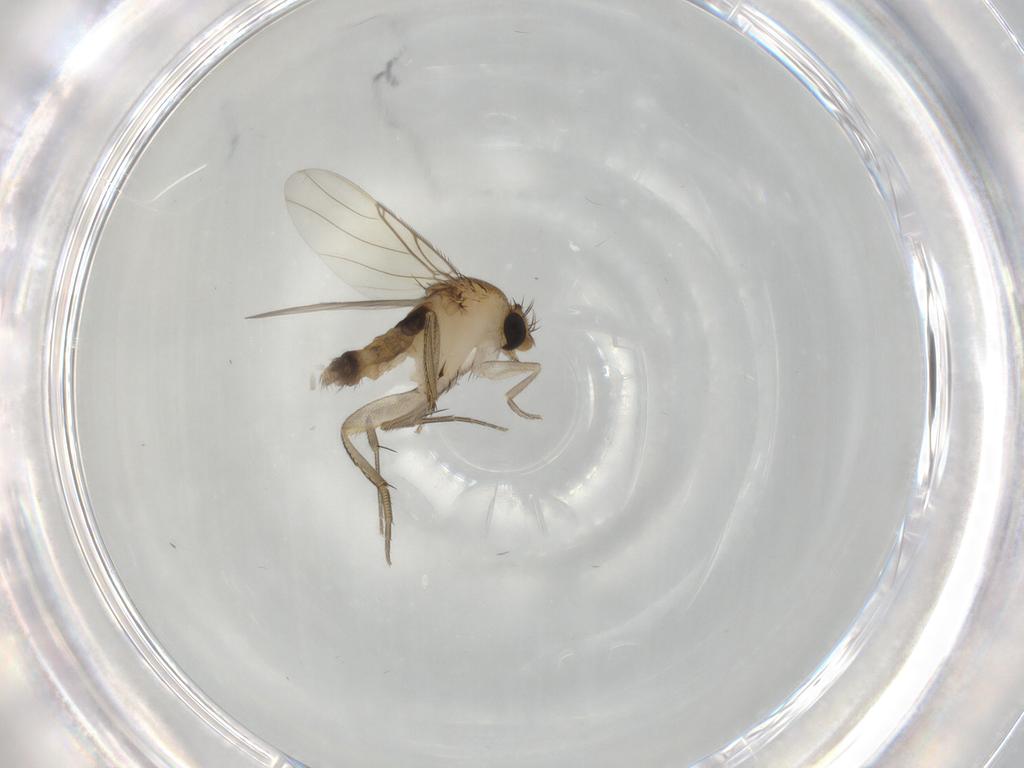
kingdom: Animalia
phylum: Arthropoda
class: Insecta
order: Diptera
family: Phoridae
